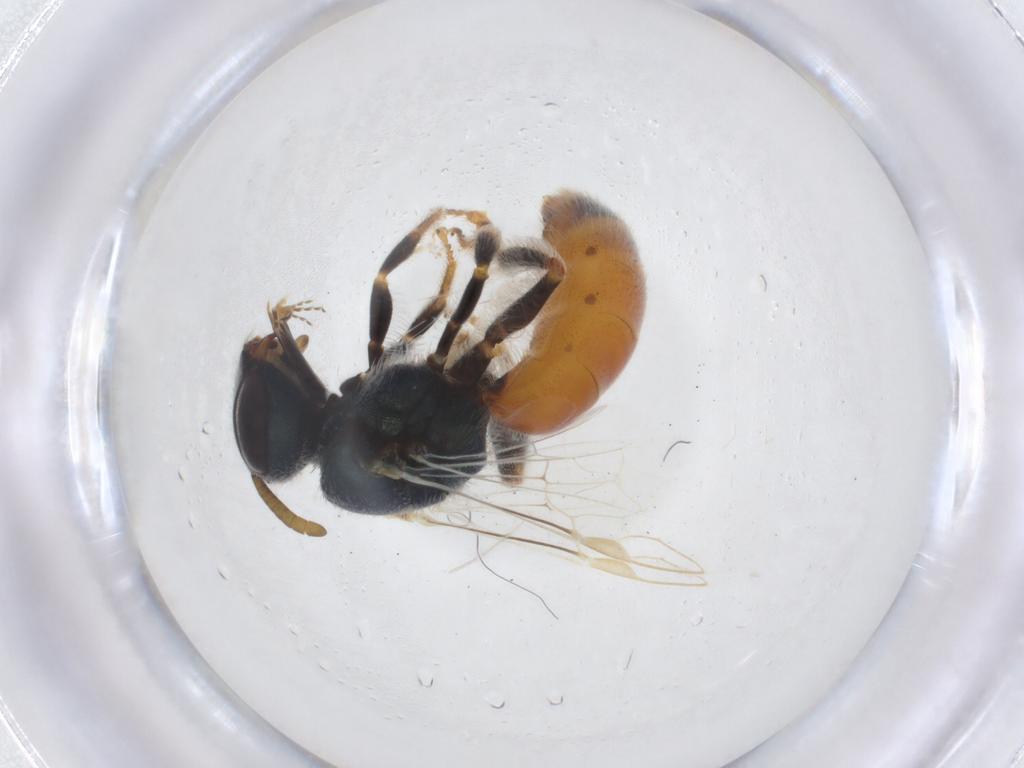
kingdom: Animalia
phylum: Arthropoda
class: Insecta
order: Hymenoptera
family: Halictidae
